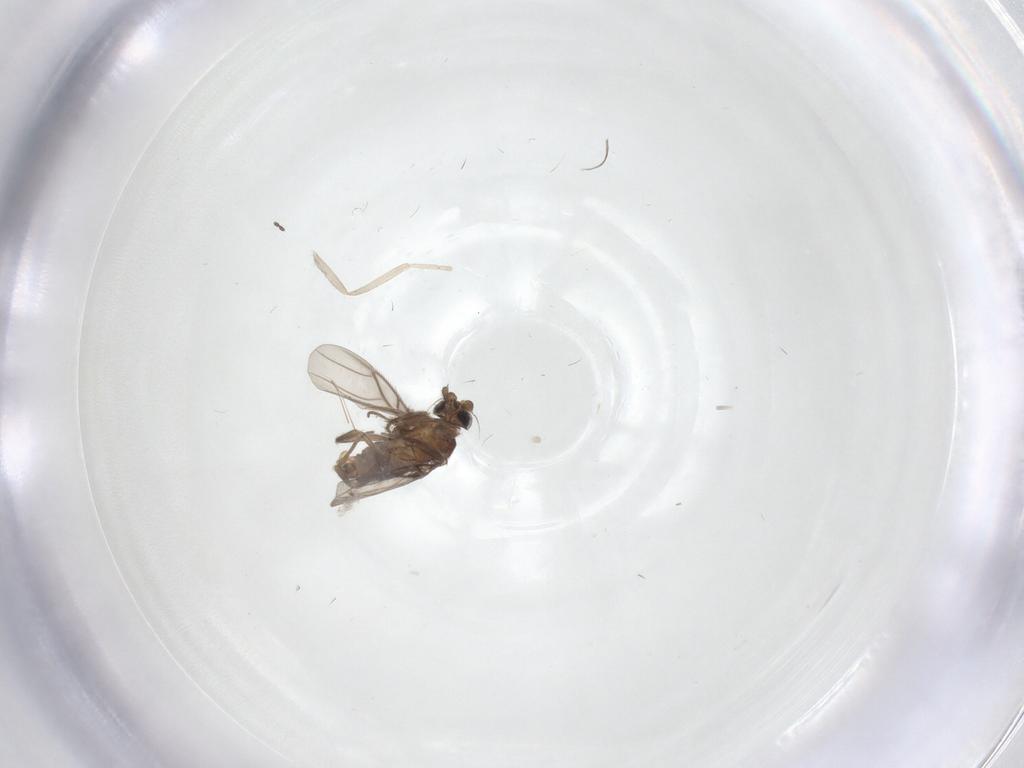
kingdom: Animalia
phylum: Arthropoda
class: Insecta
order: Diptera
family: Phoridae
